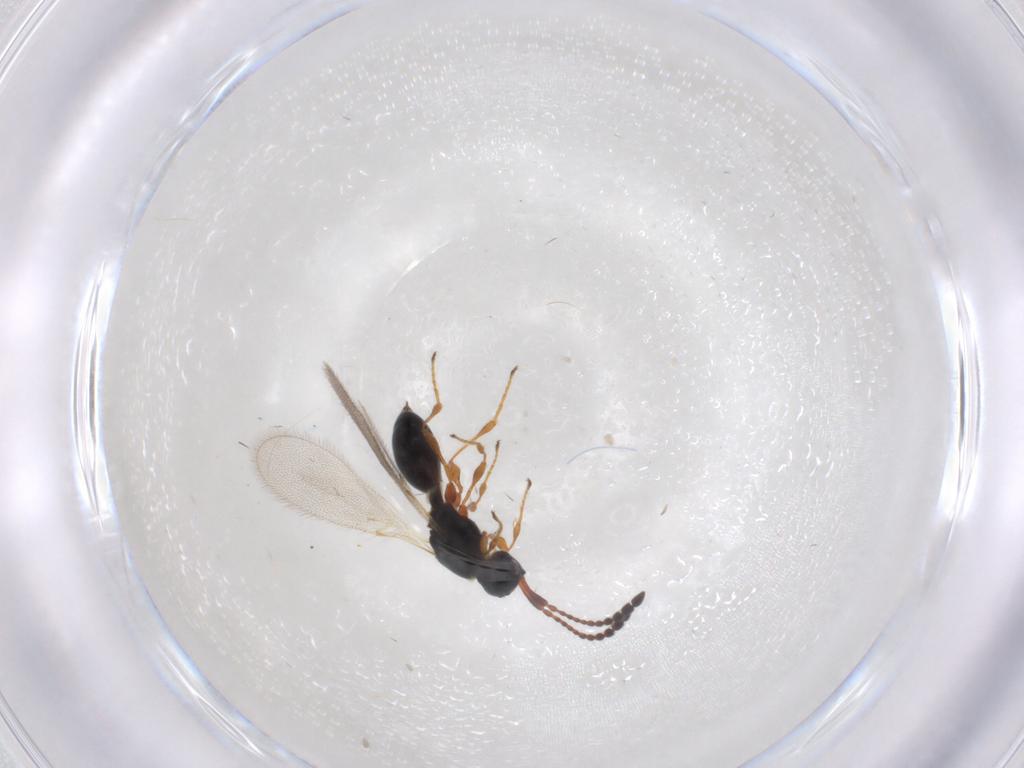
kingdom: Animalia
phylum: Arthropoda
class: Insecta
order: Hymenoptera
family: Diapriidae
